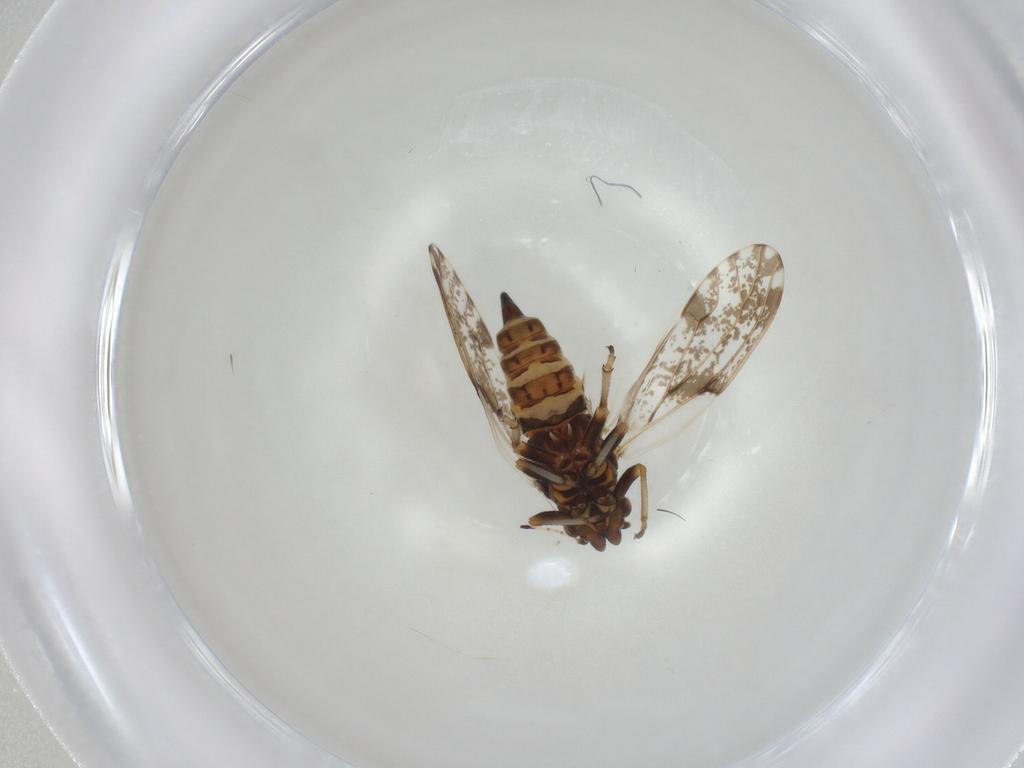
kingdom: Animalia
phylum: Arthropoda
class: Insecta
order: Hemiptera
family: Psylloidea_incertae_sedis
